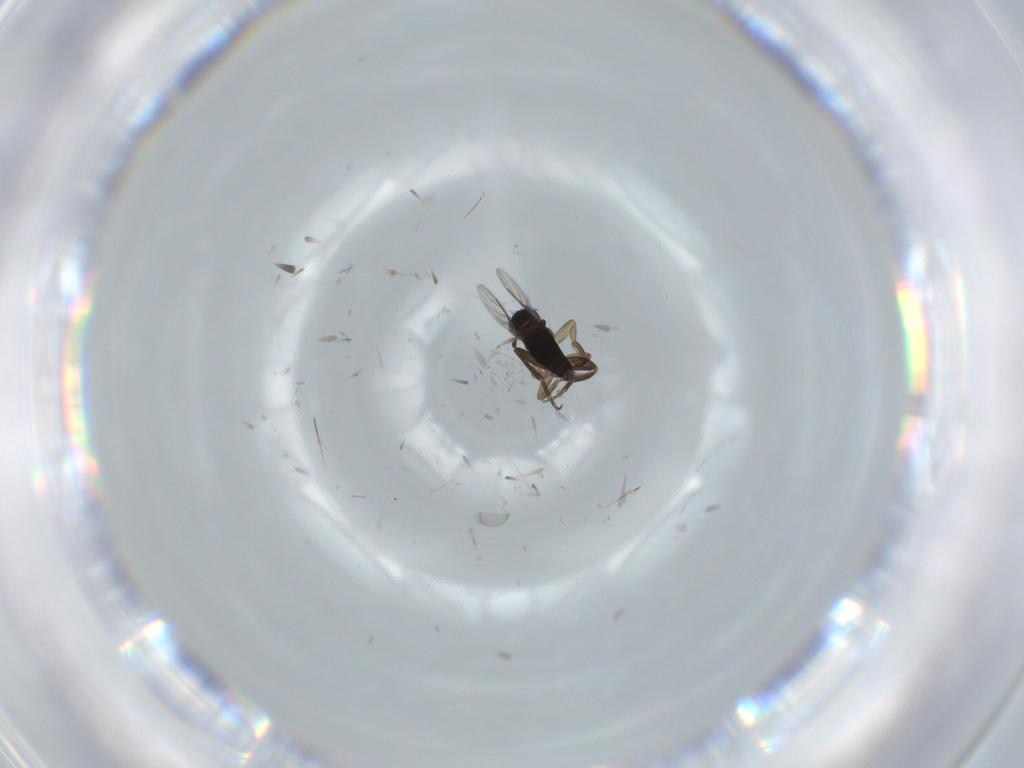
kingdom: Animalia
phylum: Arthropoda
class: Insecta
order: Diptera
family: Phoridae
